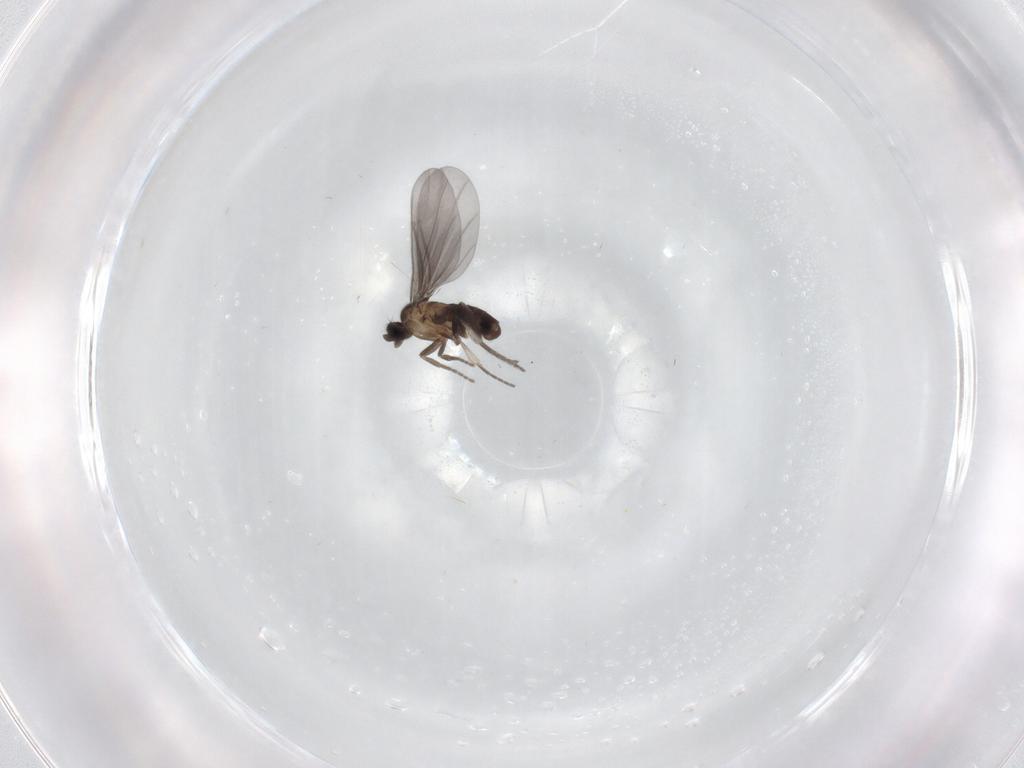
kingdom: Animalia
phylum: Arthropoda
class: Insecta
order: Diptera
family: Phoridae
